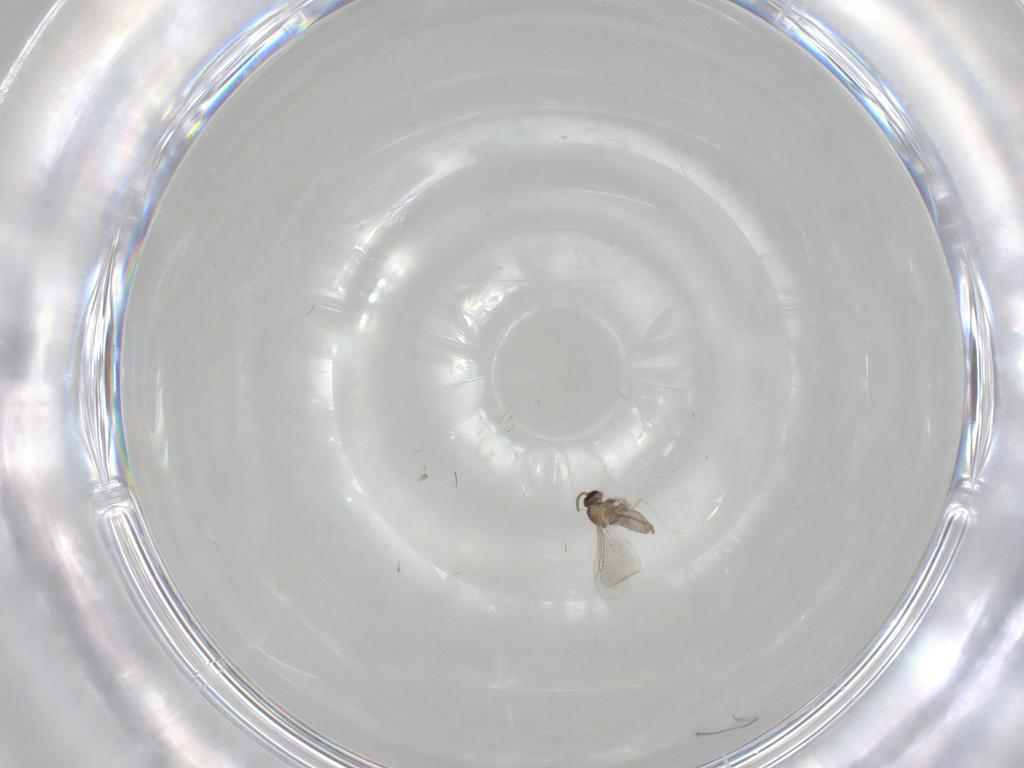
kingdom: Animalia
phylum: Arthropoda
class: Insecta
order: Diptera
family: Cecidomyiidae
